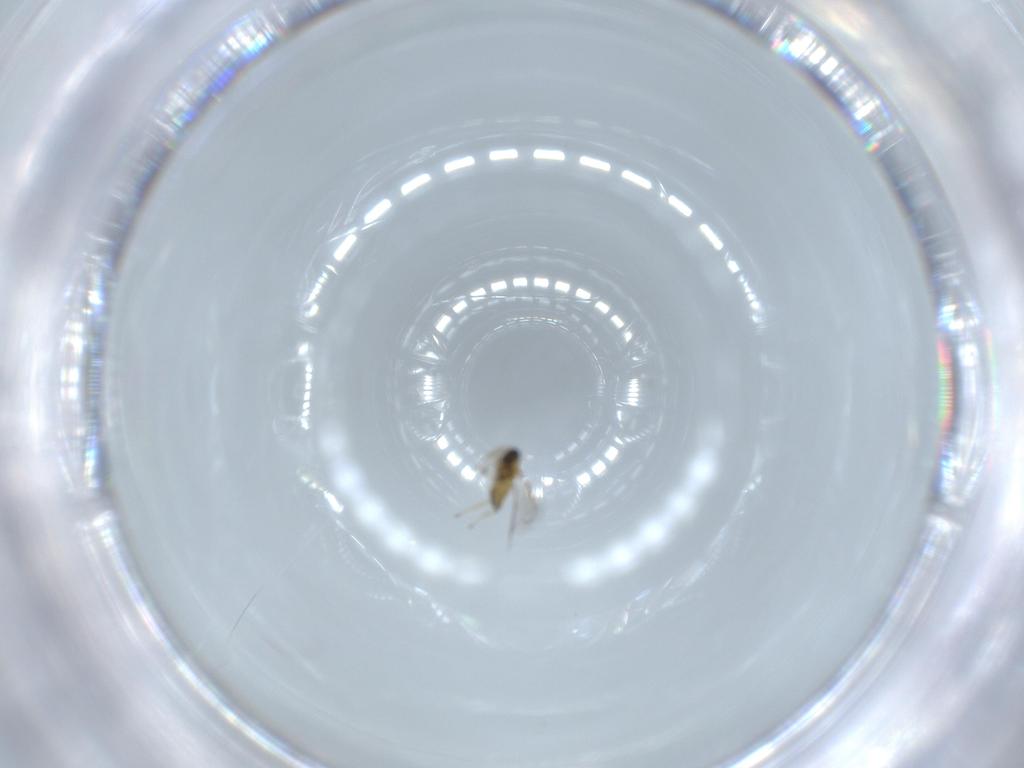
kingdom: Animalia
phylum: Arthropoda
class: Insecta
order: Hymenoptera
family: Trichogrammatidae
